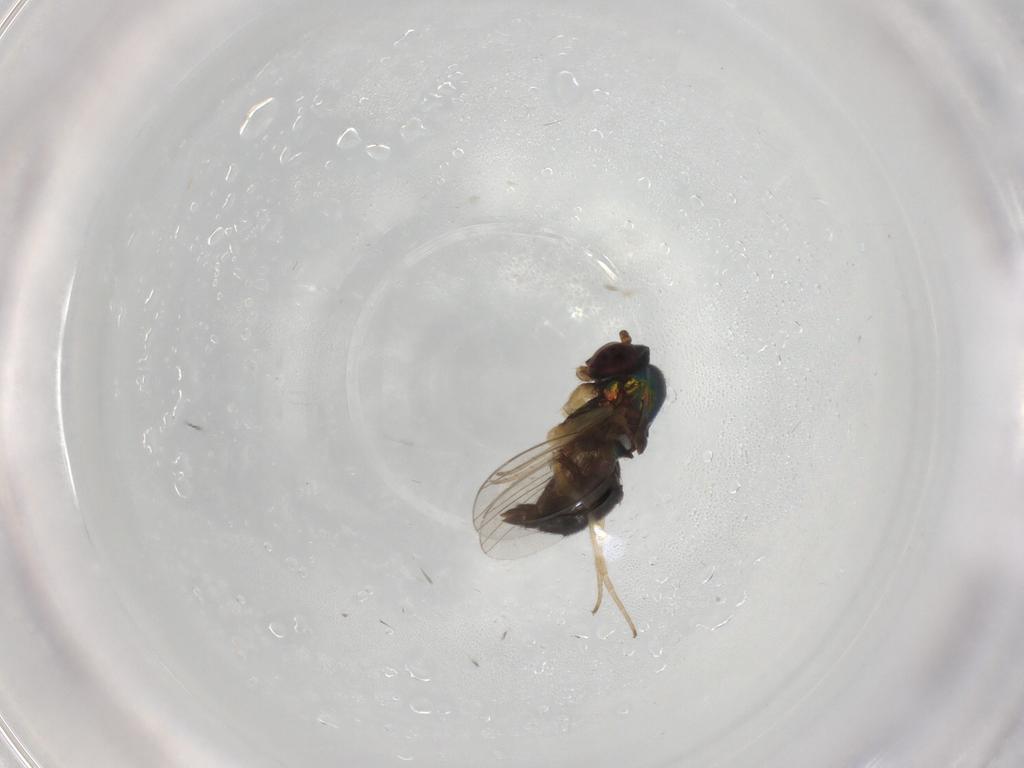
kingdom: Animalia
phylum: Arthropoda
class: Insecta
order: Diptera
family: Dolichopodidae
